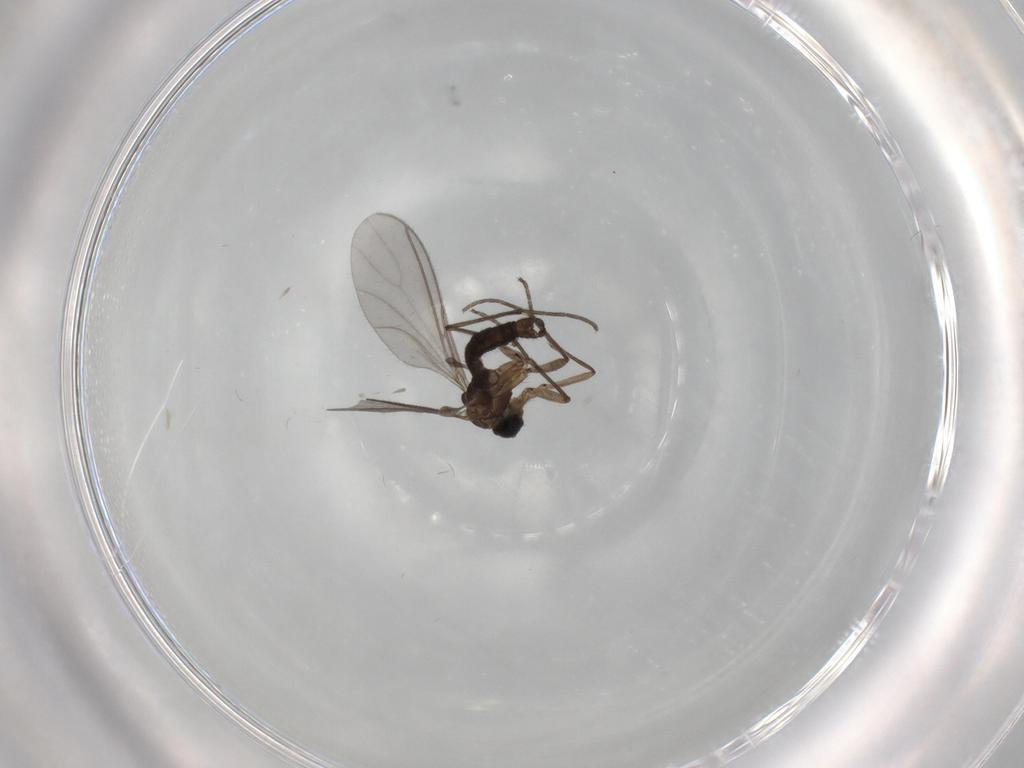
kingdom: Animalia
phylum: Arthropoda
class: Insecta
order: Diptera
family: Sciaridae
